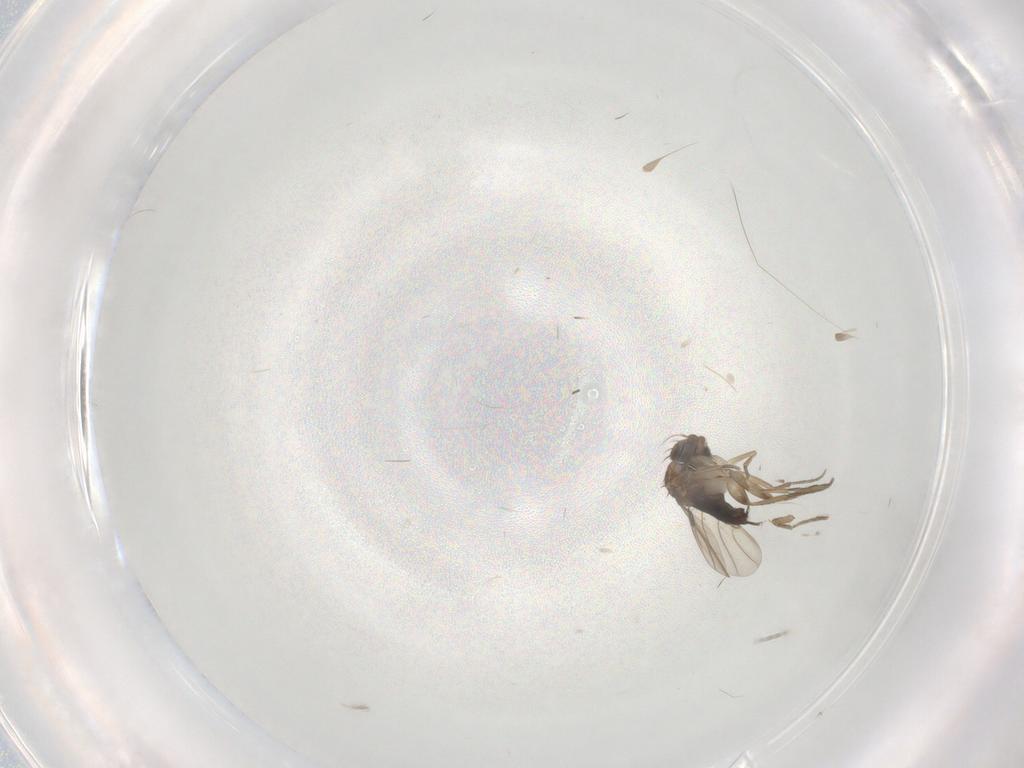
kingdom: Animalia
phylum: Arthropoda
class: Insecta
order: Diptera
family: Phoridae
